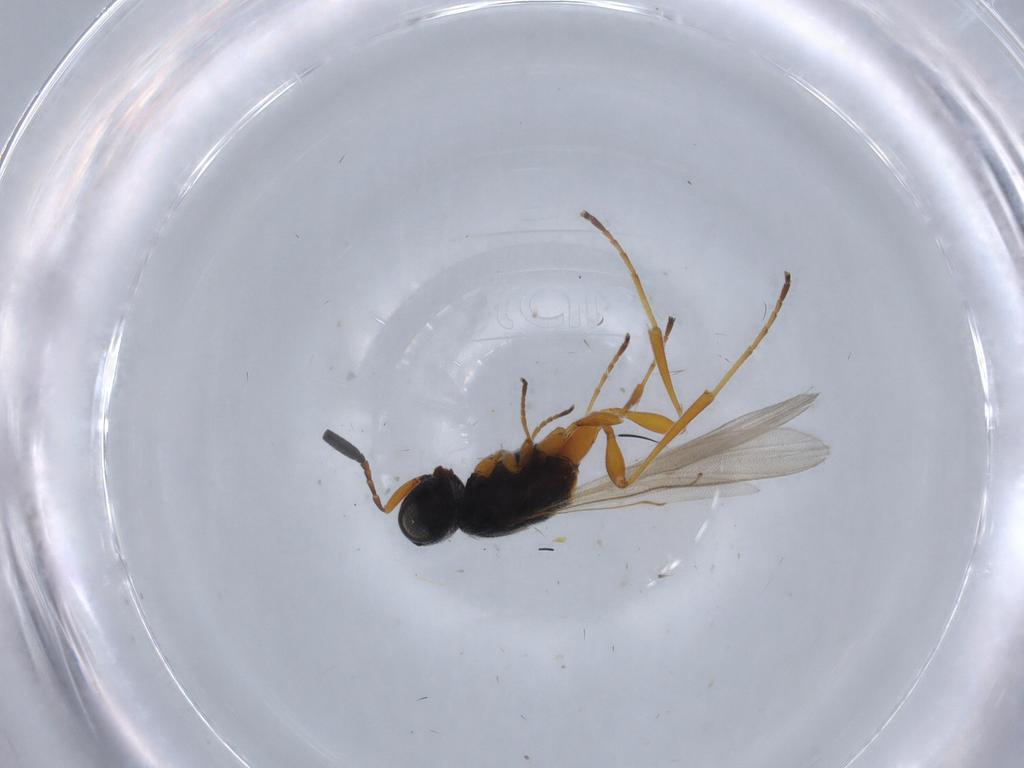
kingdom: Animalia
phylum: Arthropoda
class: Insecta
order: Hymenoptera
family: Scelionidae
